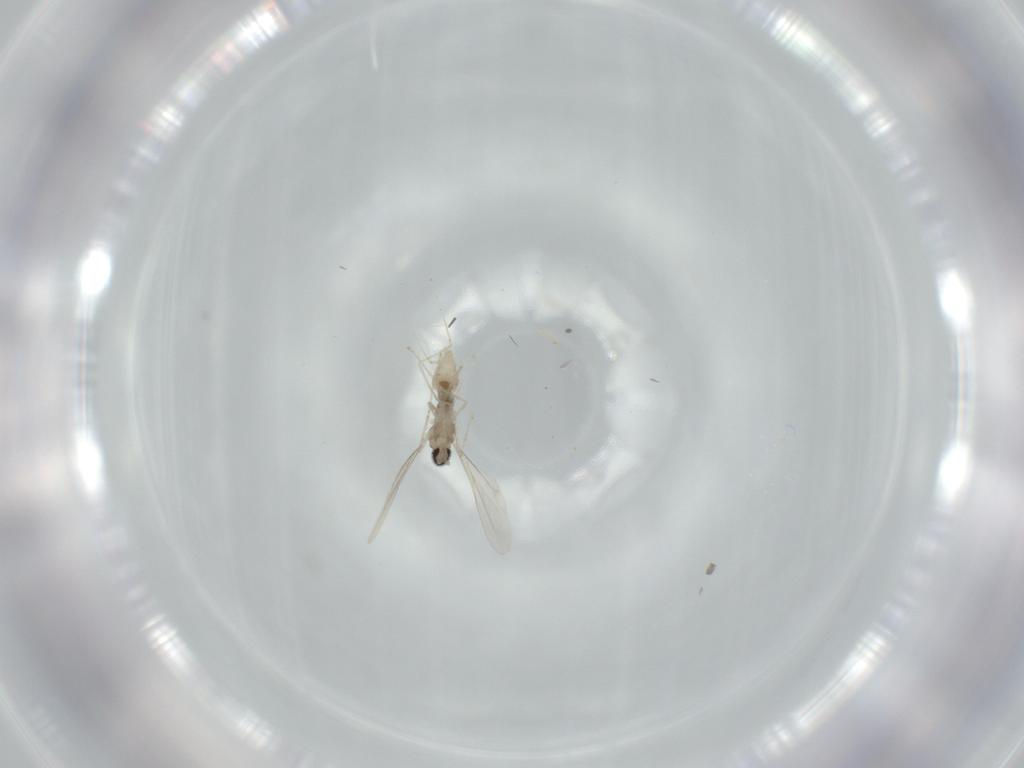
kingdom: Animalia
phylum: Arthropoda
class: Insecta
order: Diptera
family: Cecidomyiidae
